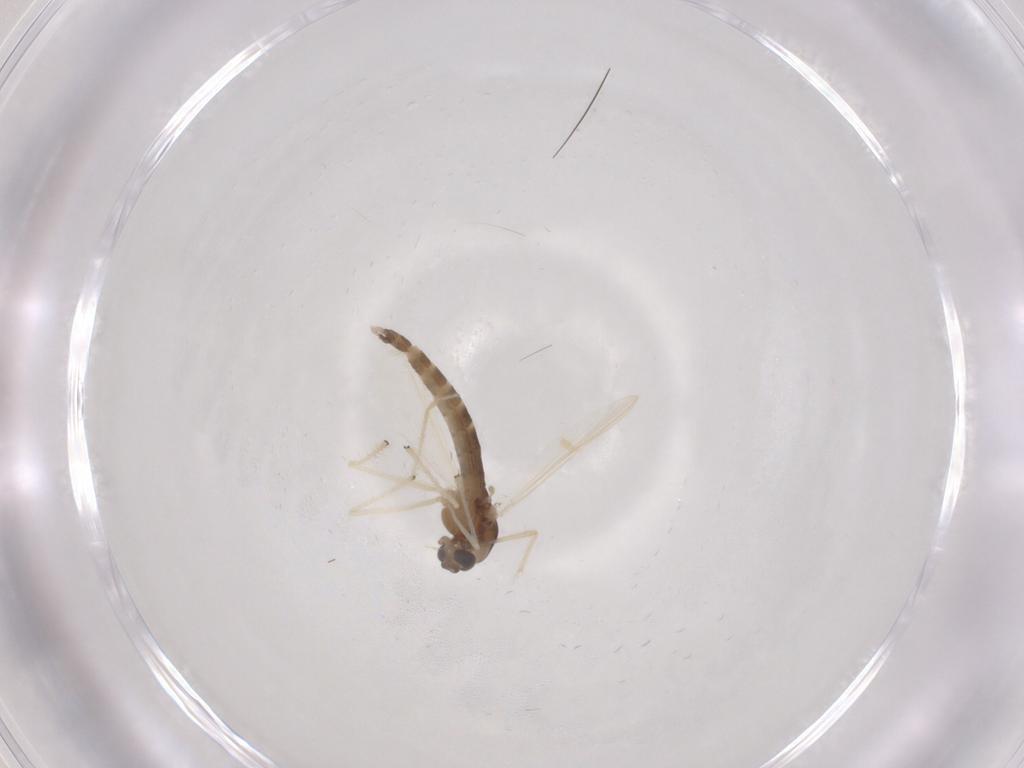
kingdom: Animalia
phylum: Arthropoda
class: Insecta
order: Diptera
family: Chironomidae
